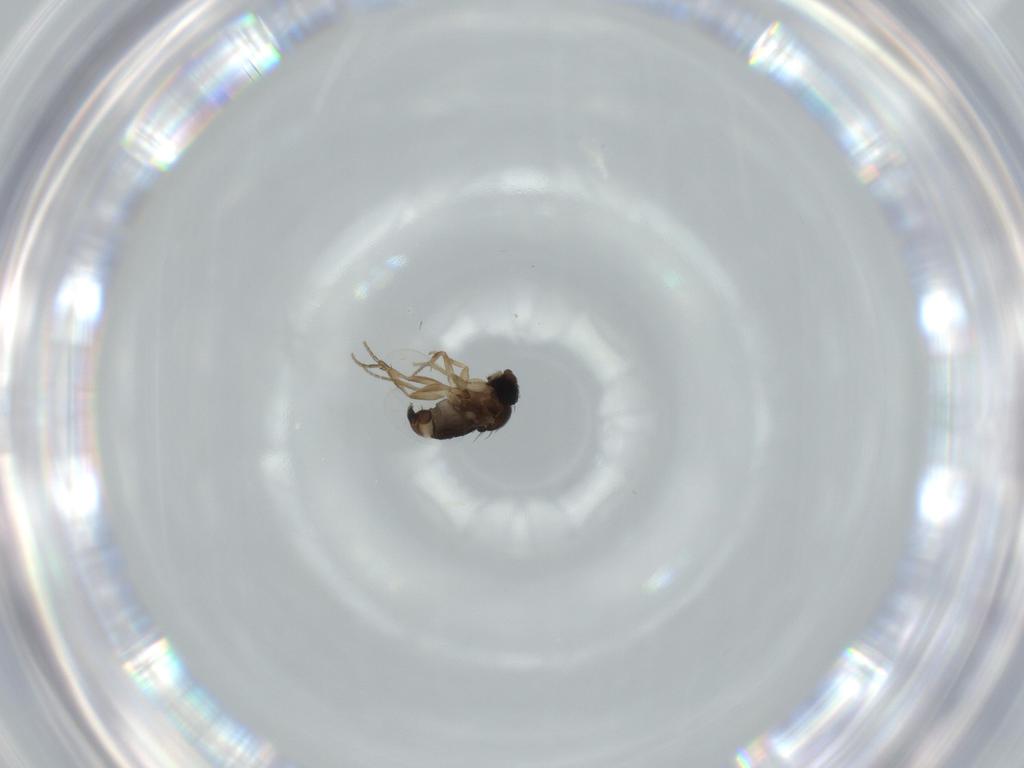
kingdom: Animalia
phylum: Arthropoda
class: Insecta
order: Diptera
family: Phoridae
